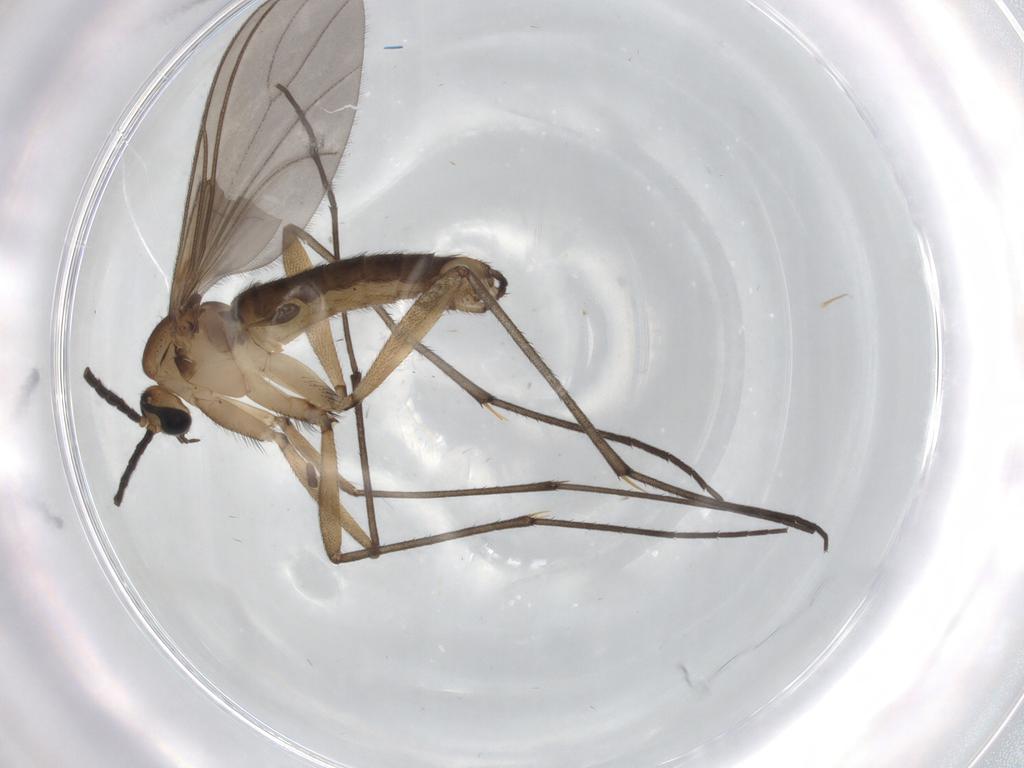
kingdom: Animalia
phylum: Arthropoda
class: Insecta
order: Diptera
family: Sciaridae
